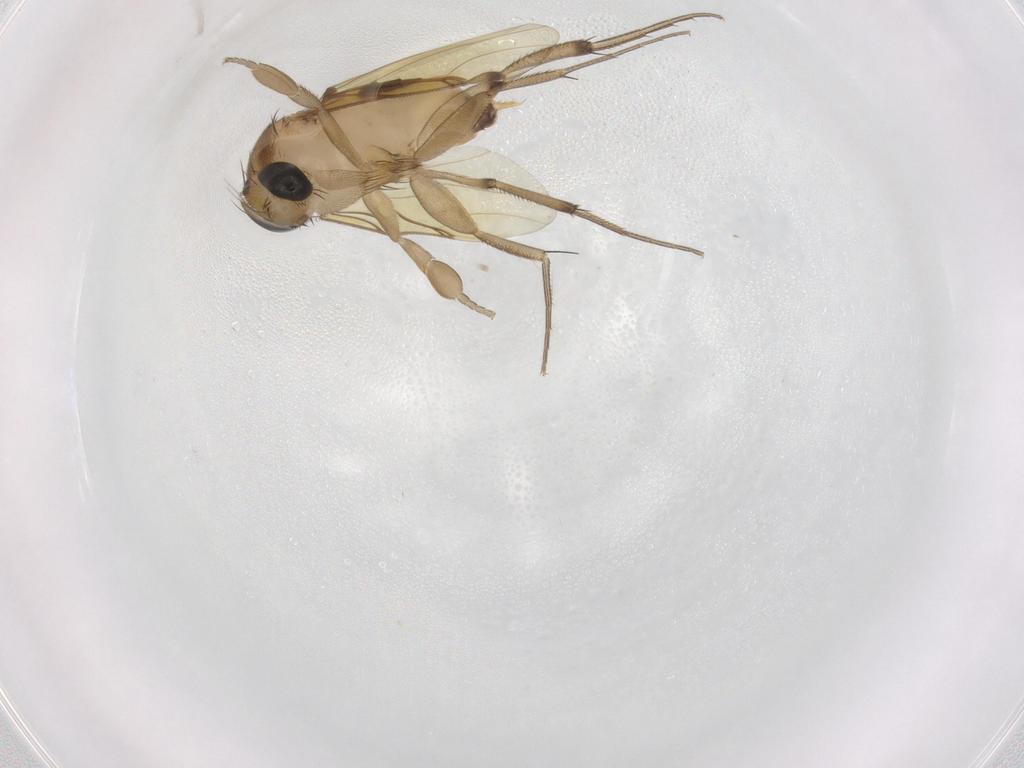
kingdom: Animalia
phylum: Arthropoda
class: Insecta
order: Diptera
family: Phoridae
